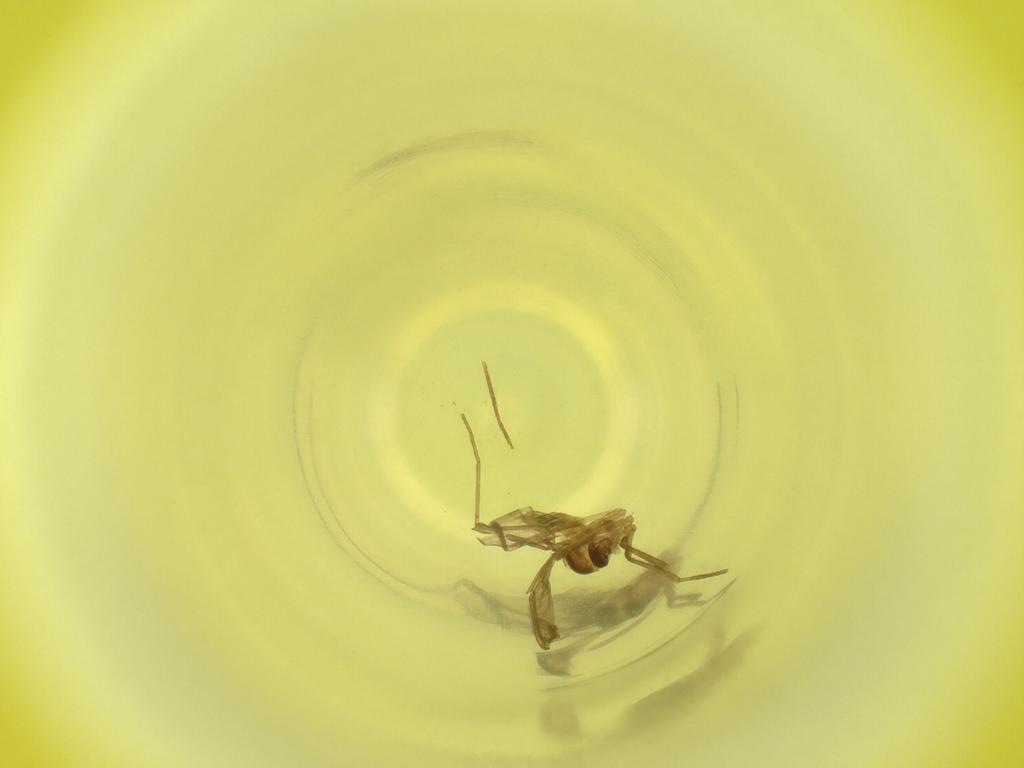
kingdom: Animalia
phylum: Arthropoda
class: Insecta
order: Diptera
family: Cecidomyiidae
